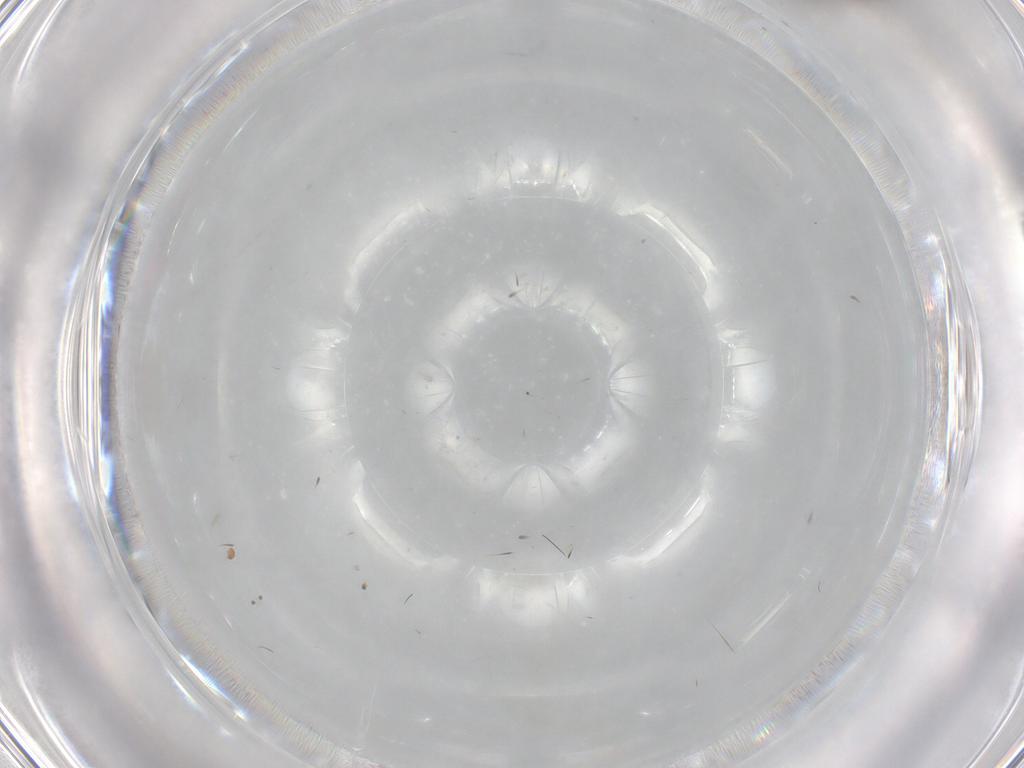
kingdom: Animalia
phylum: Arthropoda
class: Insecta
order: Diptera
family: Cecidomyiidae
